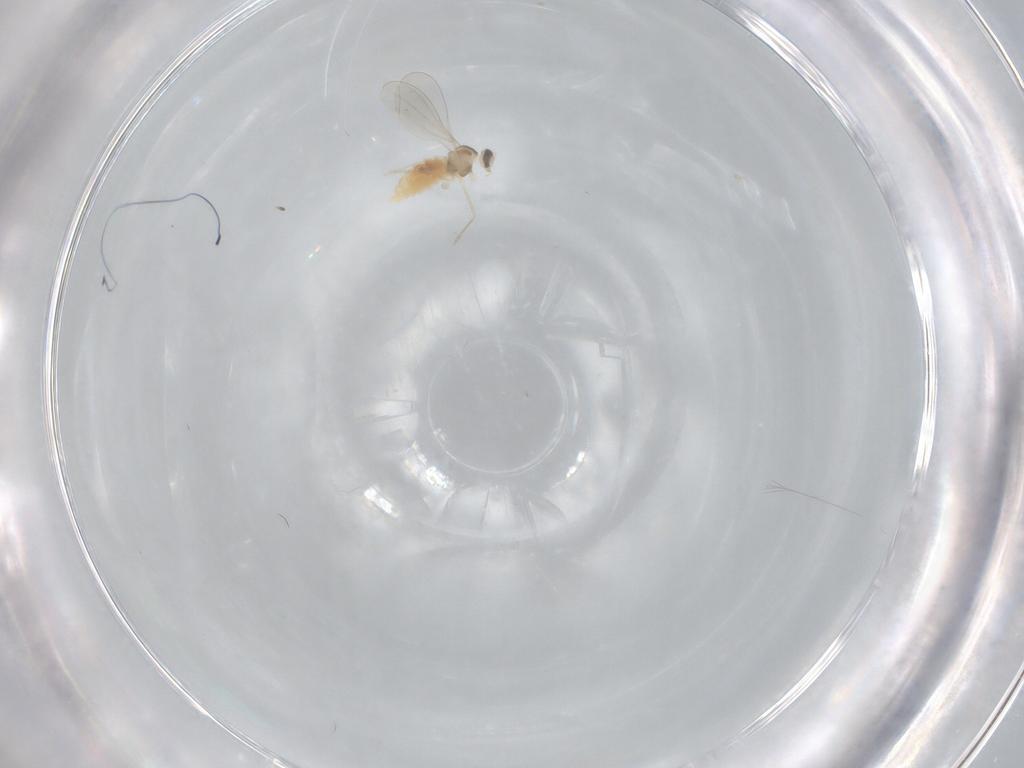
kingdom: Animalia
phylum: Arthropoda
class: Insecta
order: Diptera
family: Cecidomyiidae
